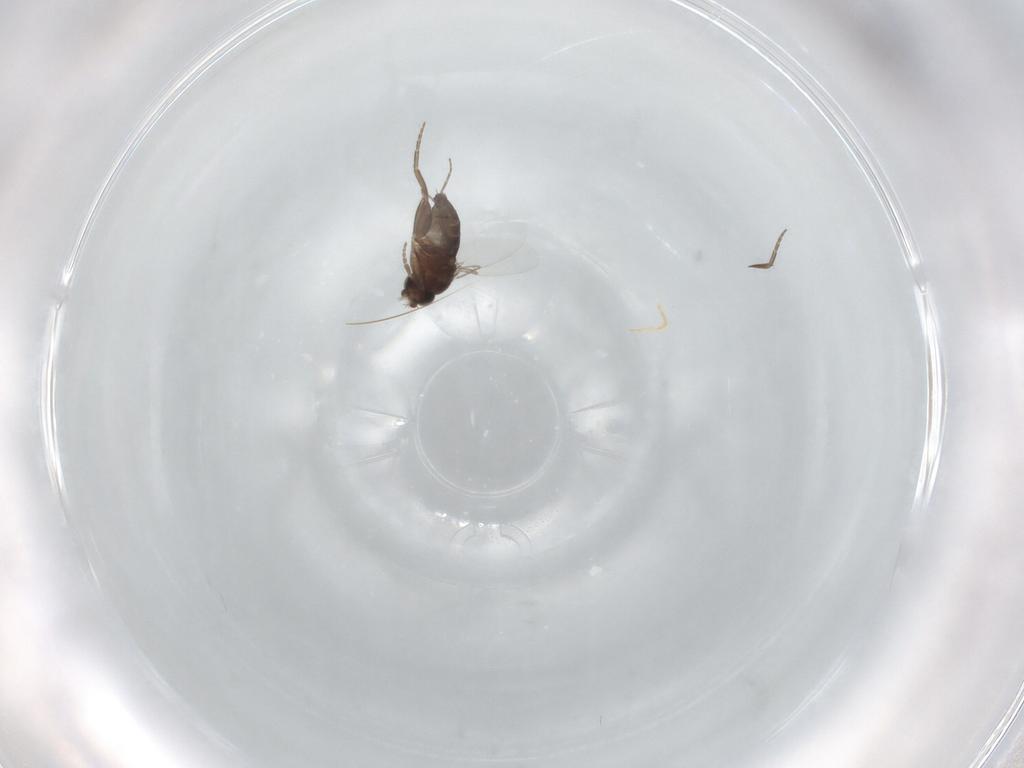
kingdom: Animalia
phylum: Arthropoda
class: Insecta
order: Diptera
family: Phoridae
